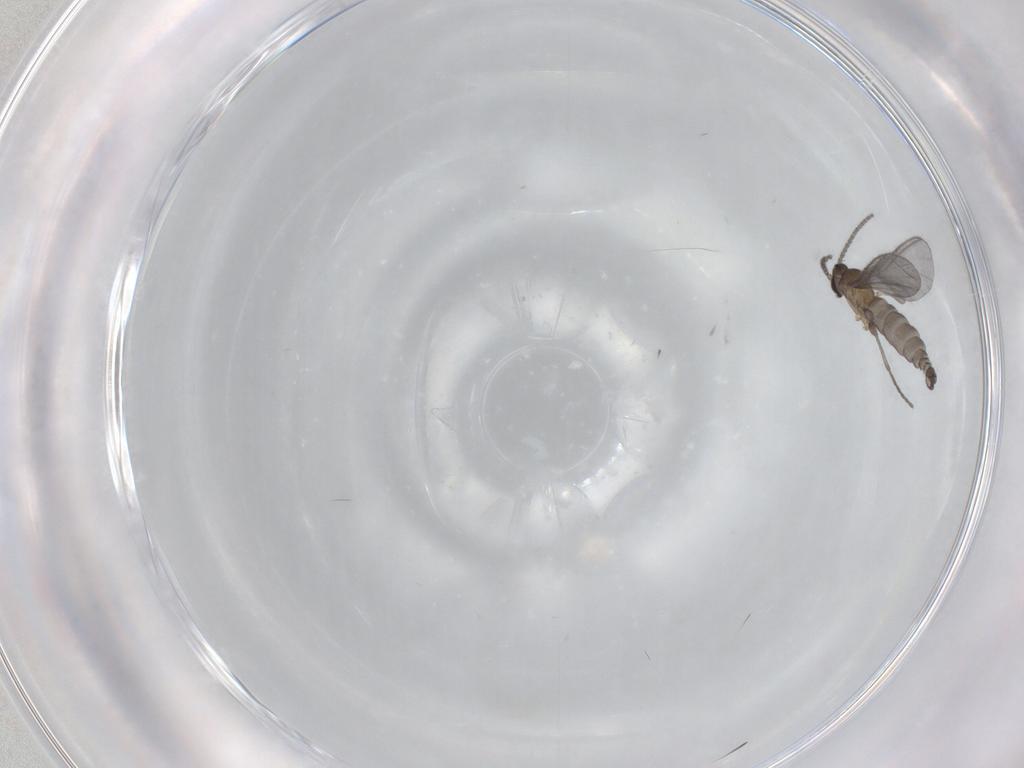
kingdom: Animalia
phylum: Arthropoda
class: Insecta
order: Diptera
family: Sciaridae
